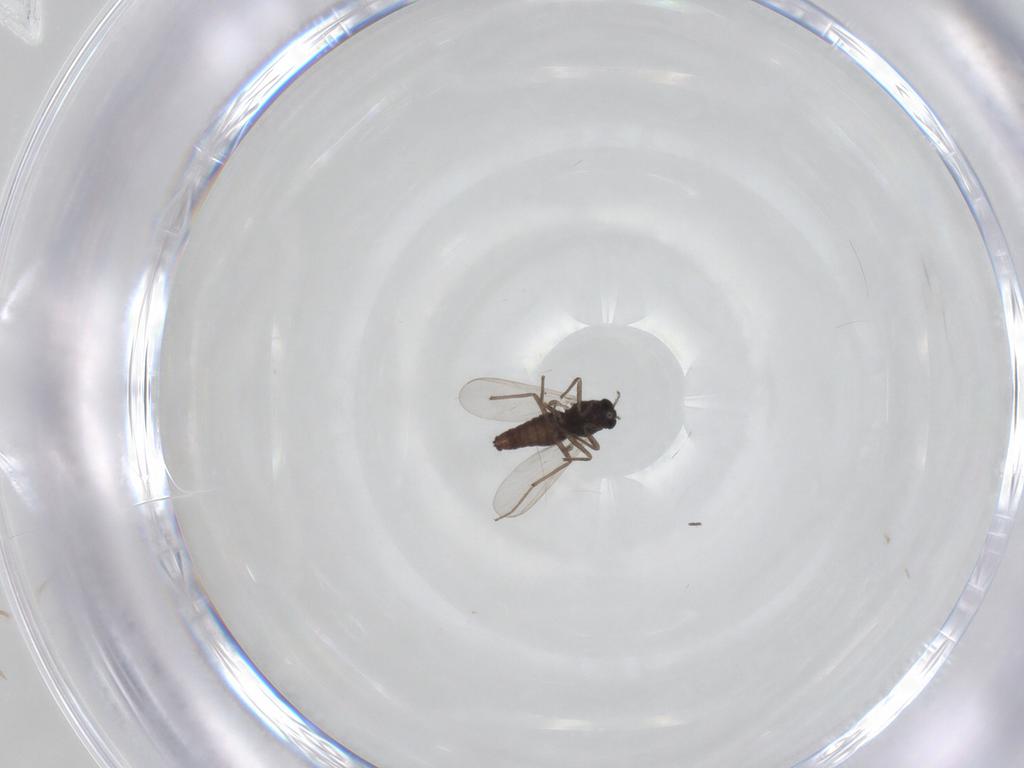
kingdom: Animalia
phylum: Arthropoda
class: Insecta
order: Diptera
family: Chironomidae
